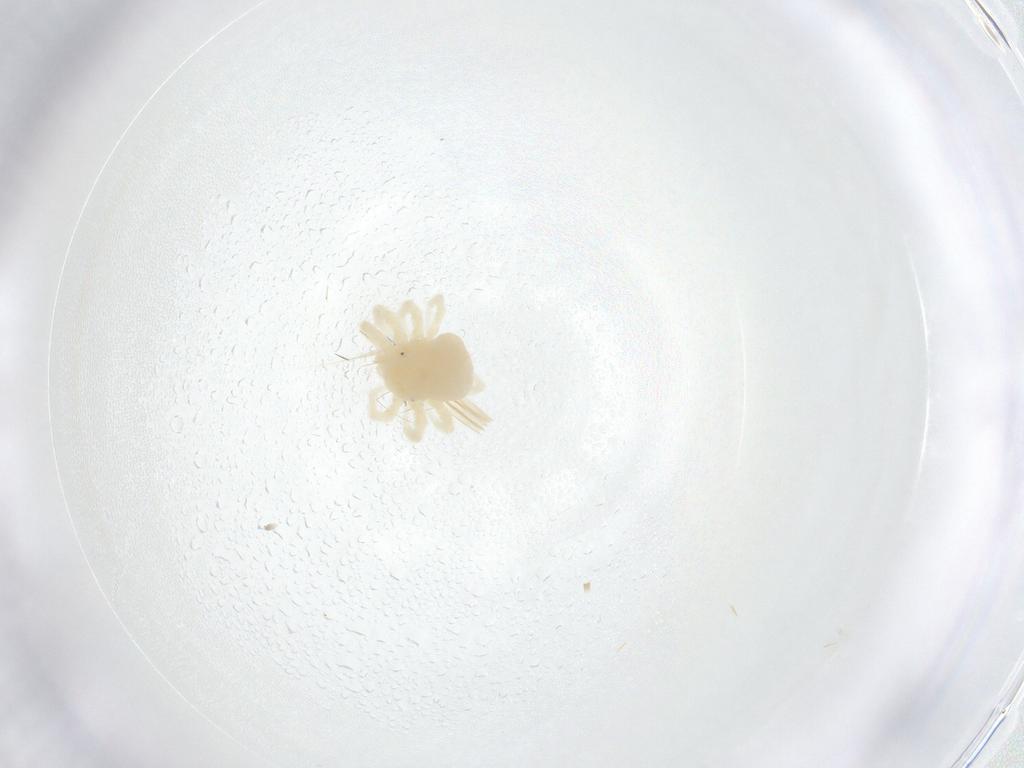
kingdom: Animalia
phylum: Arthropoda
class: Arachnida
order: Trombidiformes
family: Anystidae
